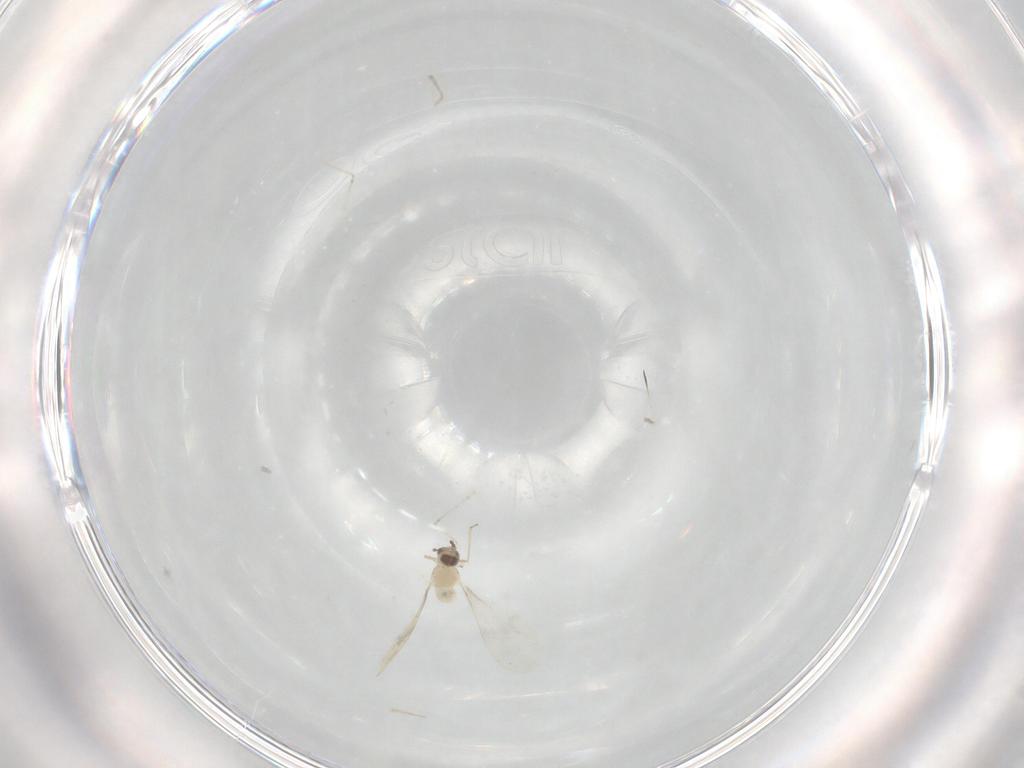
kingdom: Animalia
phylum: Arthropoda
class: Insecta
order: Diptera
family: Cecidomyiidae
